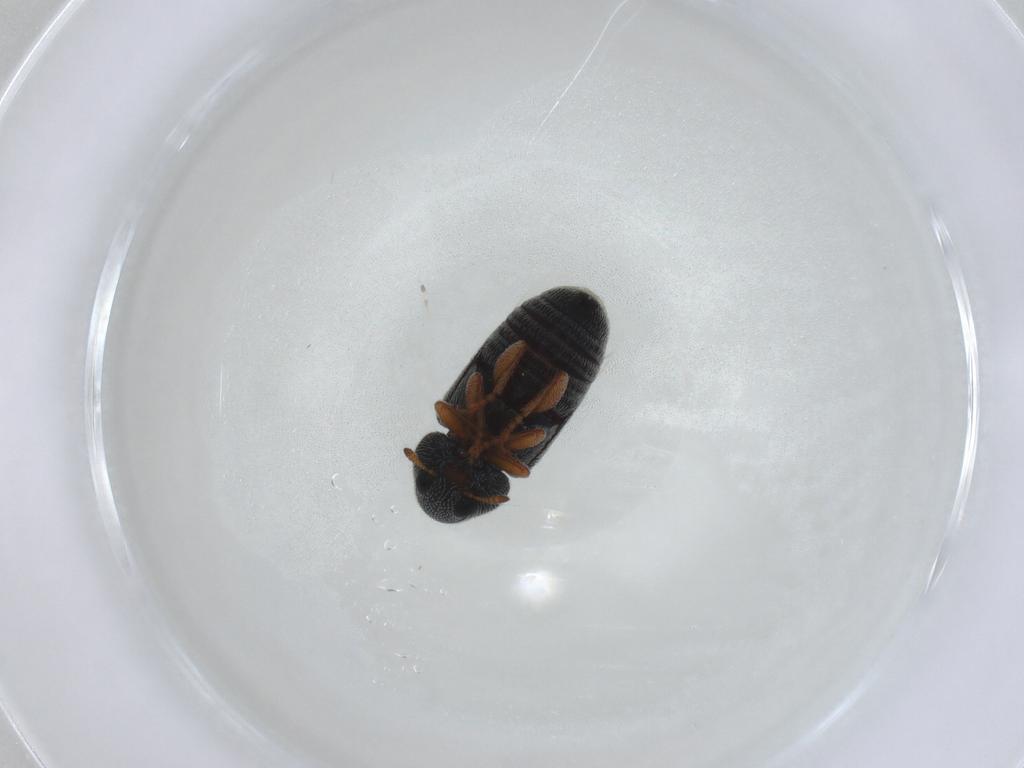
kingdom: Animalia
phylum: Arthropoda
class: Insecta
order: Coleoptera
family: Anthribidae
